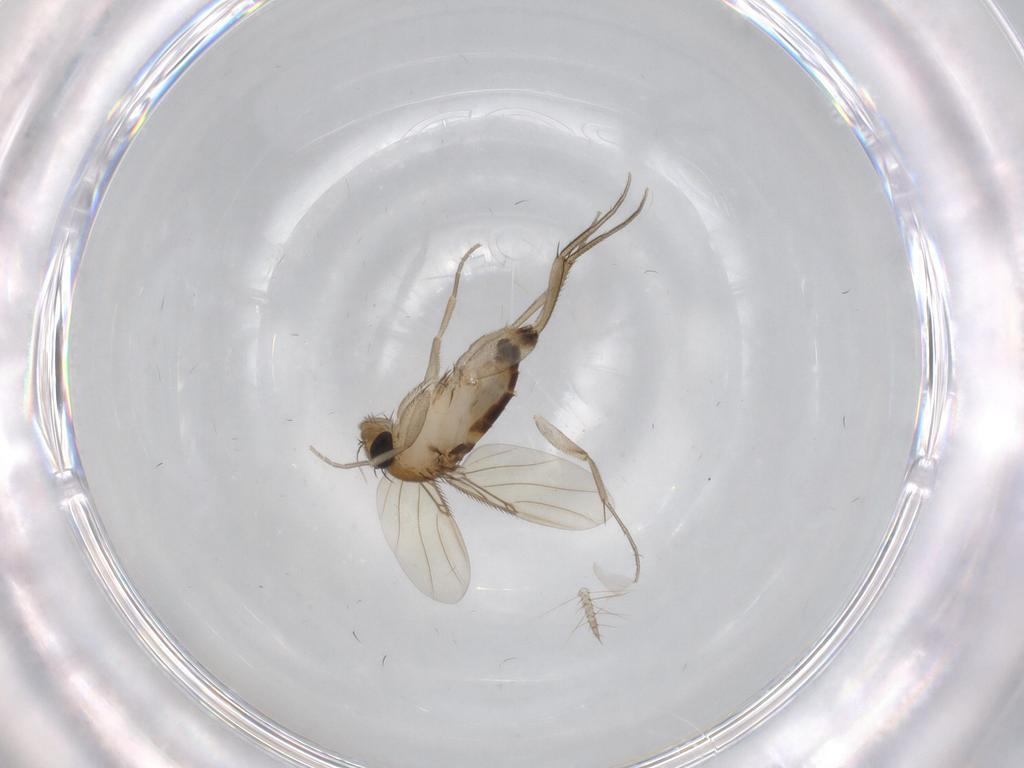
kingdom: Animalia
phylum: Arthropoda
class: Insecta
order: Diptera
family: Phoridae
